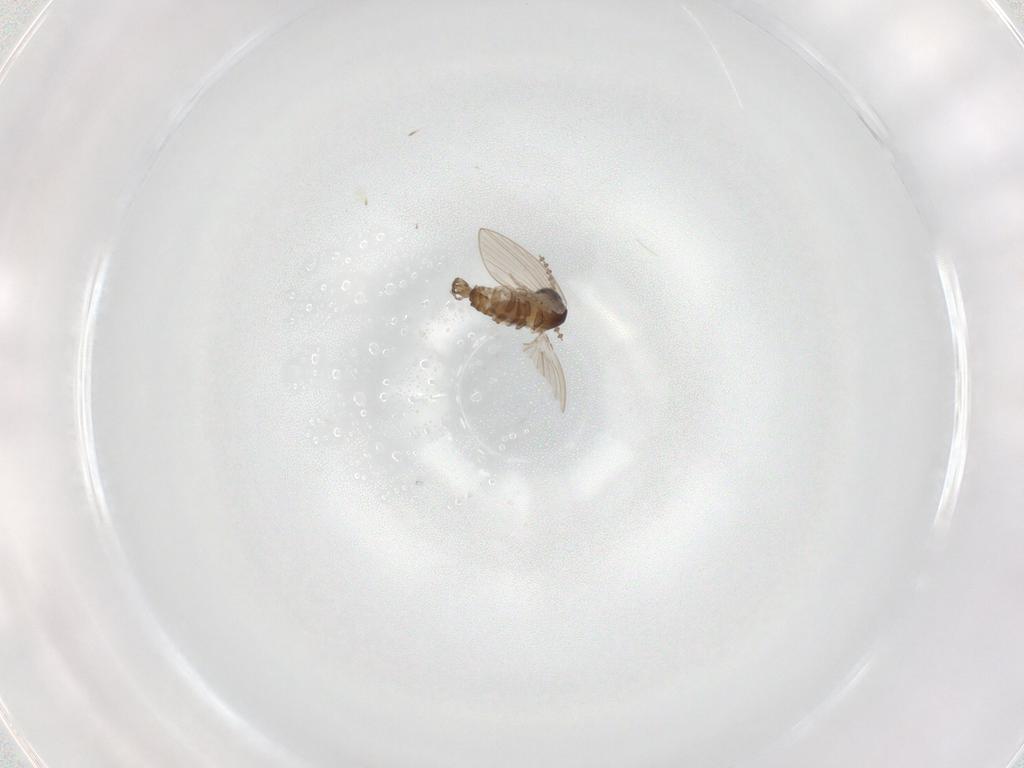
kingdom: Animalia
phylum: Arthropoda
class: Insecta
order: Diptera
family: Psychodidae
